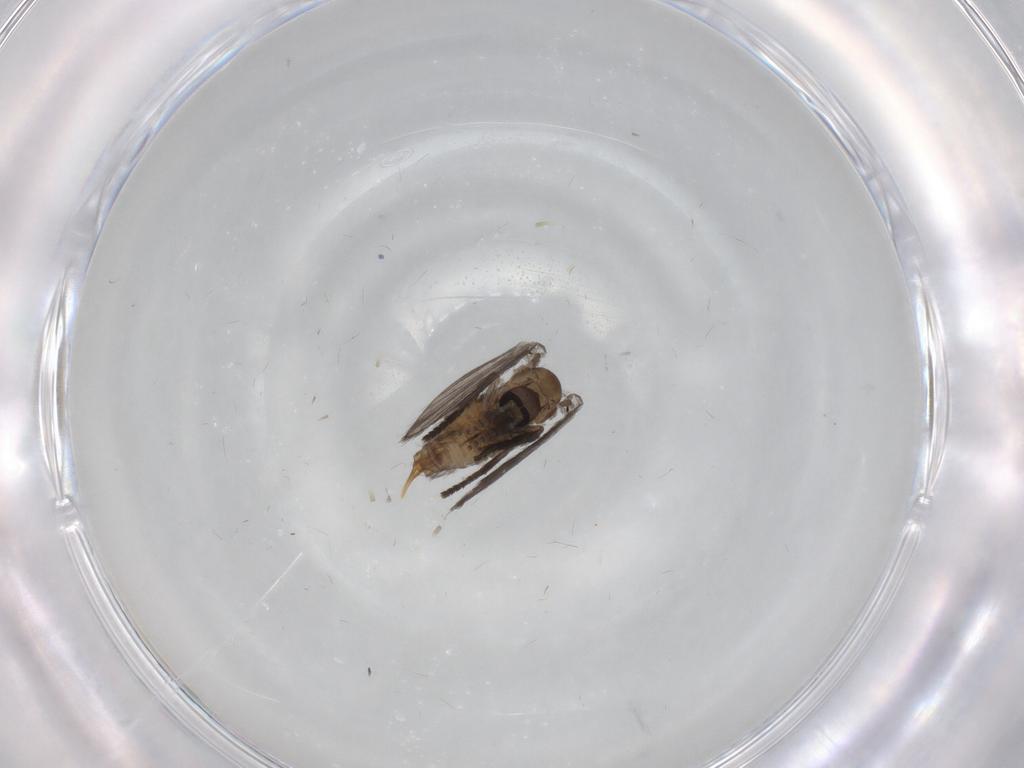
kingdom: Animalia
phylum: Arthropoda
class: Insecta
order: Diptera
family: Psychodidae
